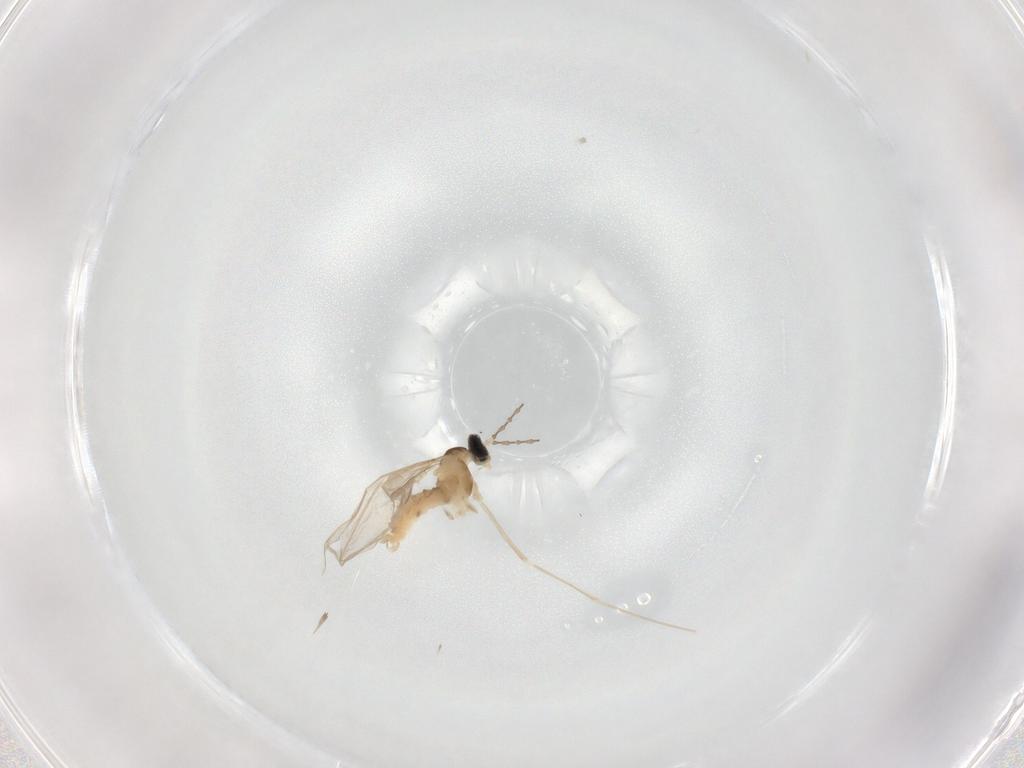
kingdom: Animalia
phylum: Arthropoda
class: Insecta
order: Diptera
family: Cecidomyiidae
